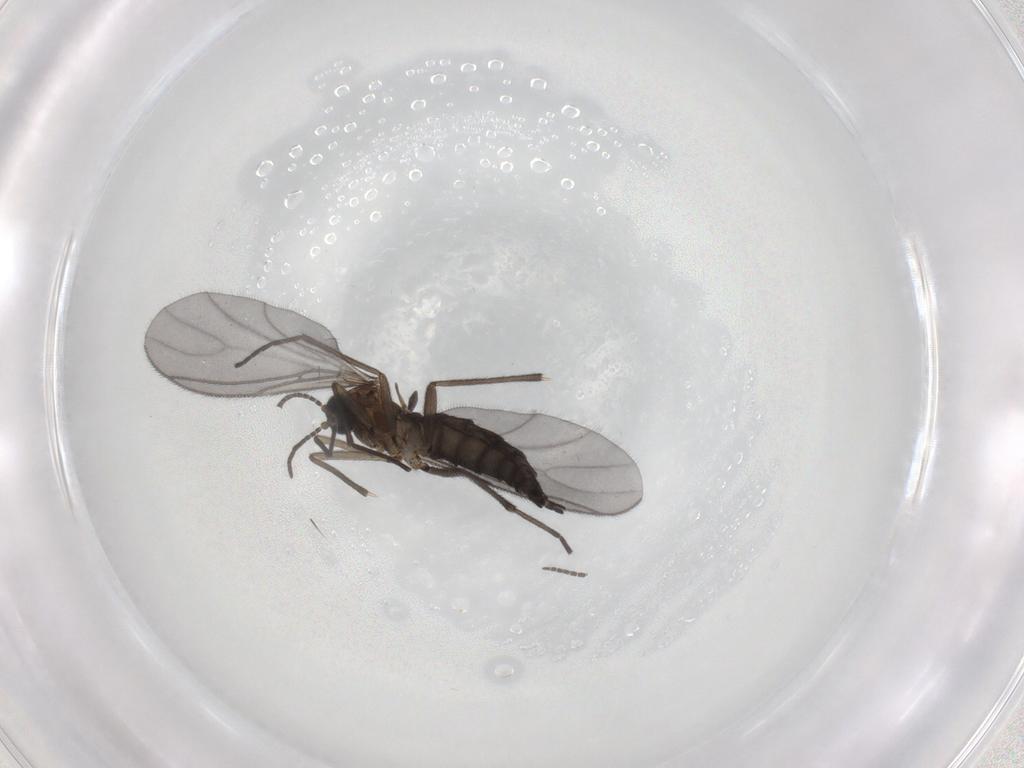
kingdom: Animalia
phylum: Arthropoda
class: Insecta
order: Diptera
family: Sciaridae
